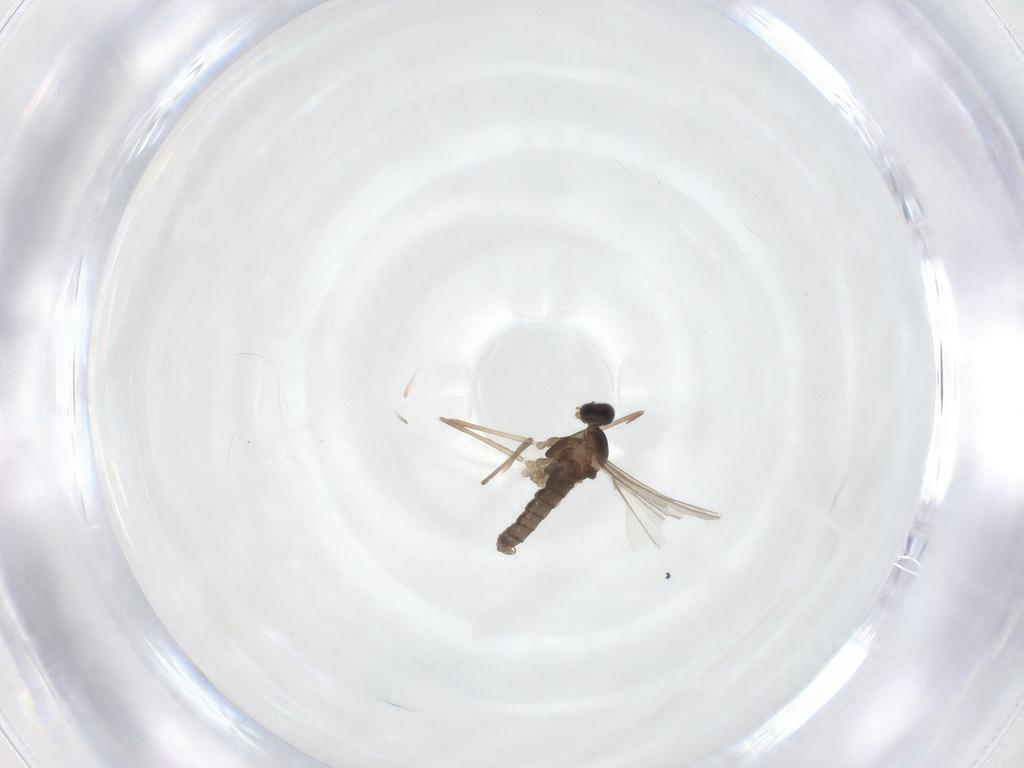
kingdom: Animalia
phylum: Arthropoda
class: Insecta
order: Diptera
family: Chironomidae
